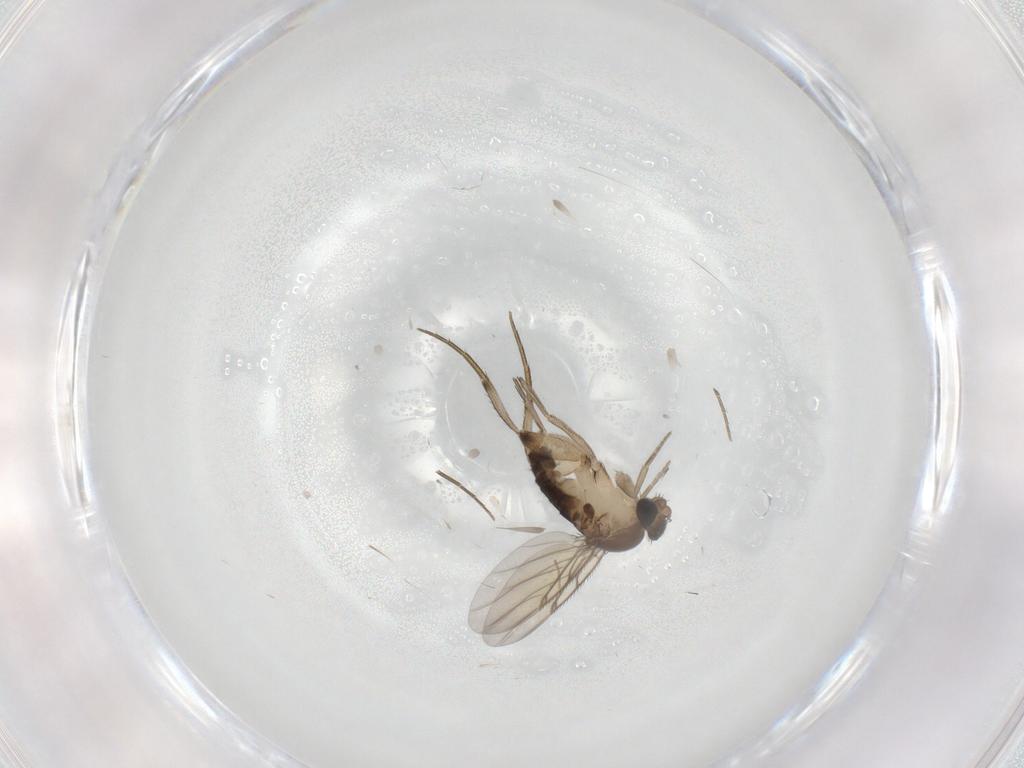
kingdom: Animalia
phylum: Arthropoda
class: Insecta
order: Diptera
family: Phoridae
